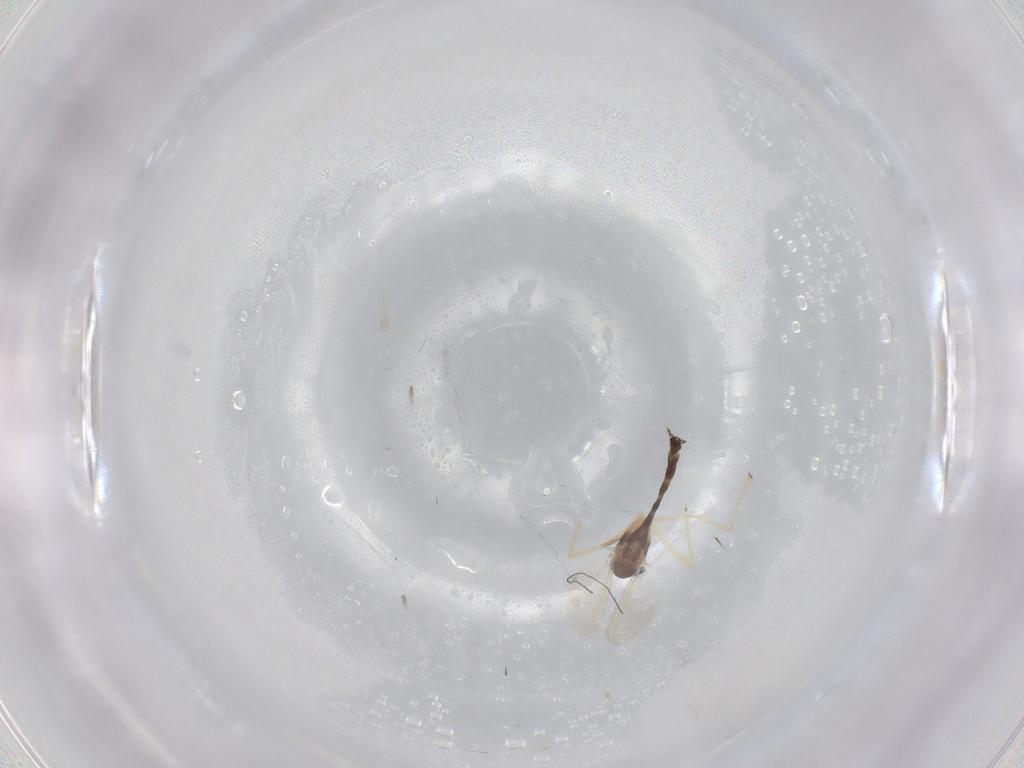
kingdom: Animalia
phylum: Arthropoda
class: Insecta
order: Diptera
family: Chironomidae
